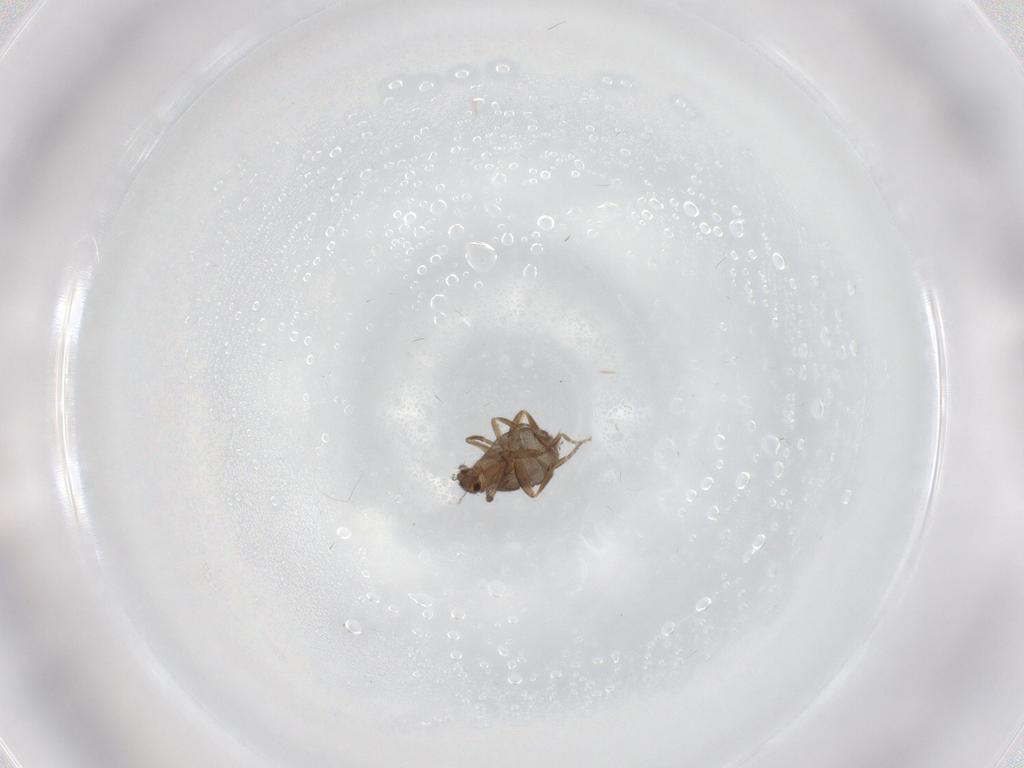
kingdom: Animalia
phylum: Arthropoda
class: Insecta
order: Diptera
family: Phoridae
